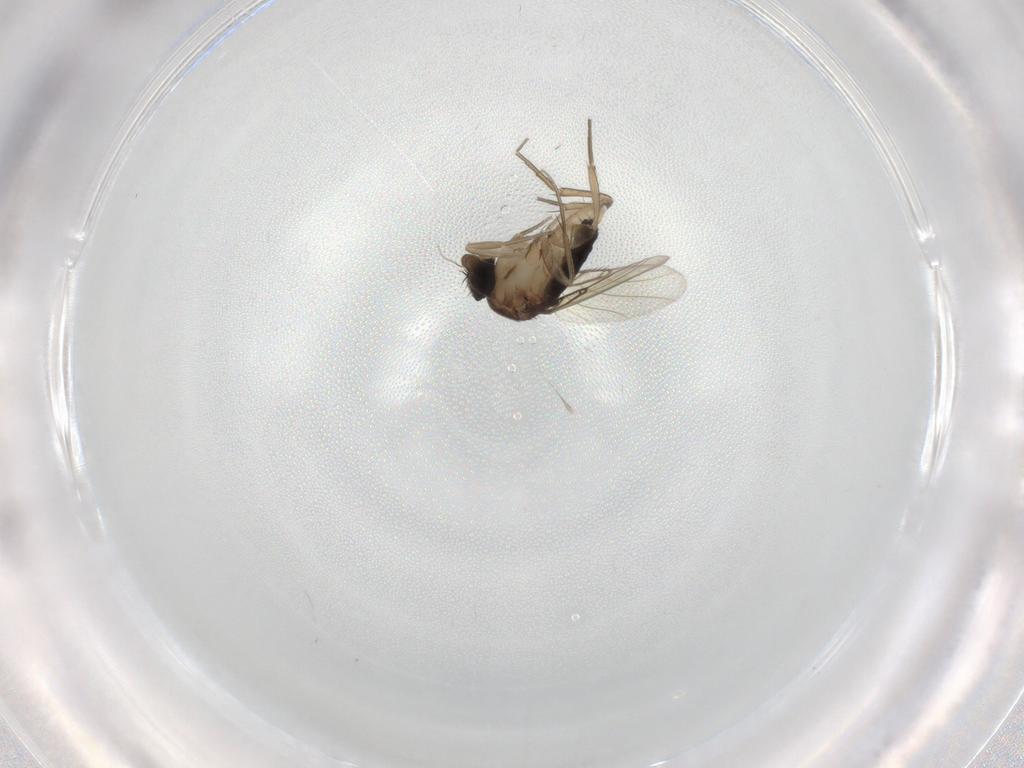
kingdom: Animalia
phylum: Arthropoda
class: Insecta
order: Diptera
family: Phoridae
